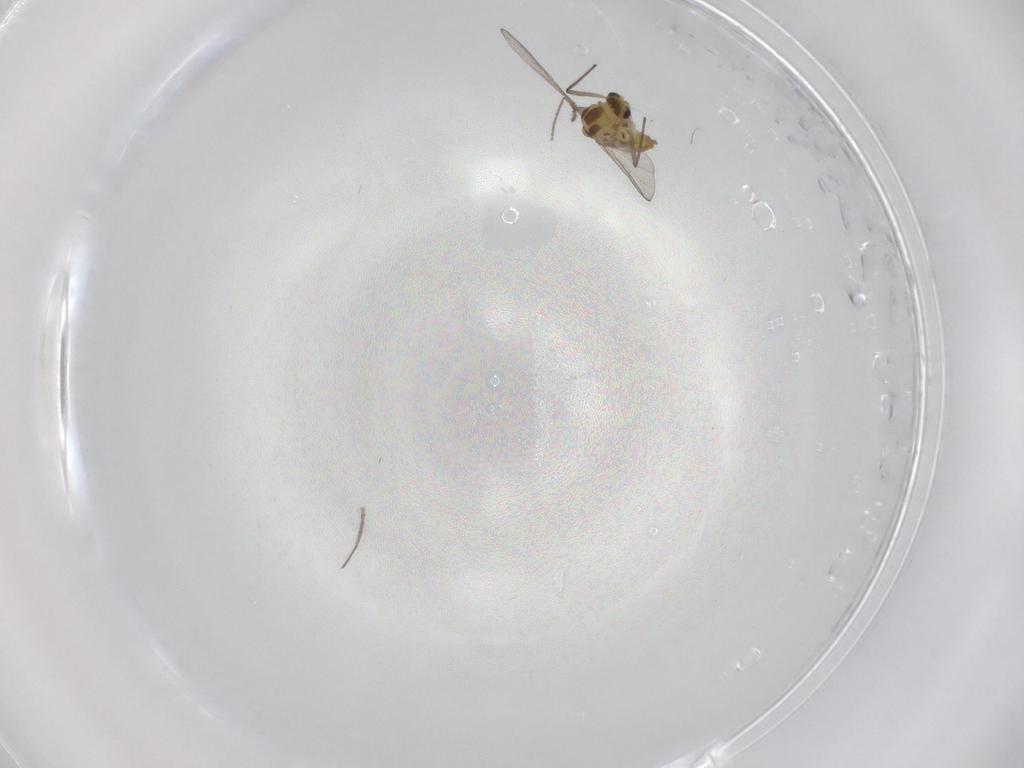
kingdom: Animalia
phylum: Arthropoda
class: Insecta
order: Diptera
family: Chironomidae
